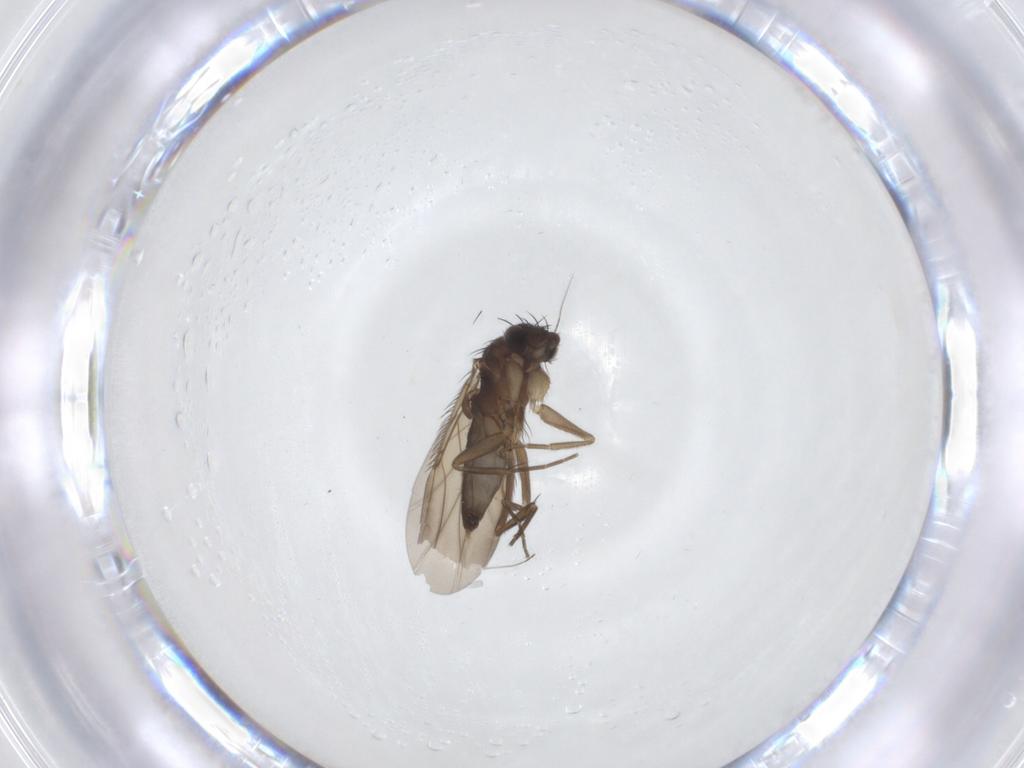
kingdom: Animalia
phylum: Arthropoda
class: Insecta
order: Diptera
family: Phoridae
